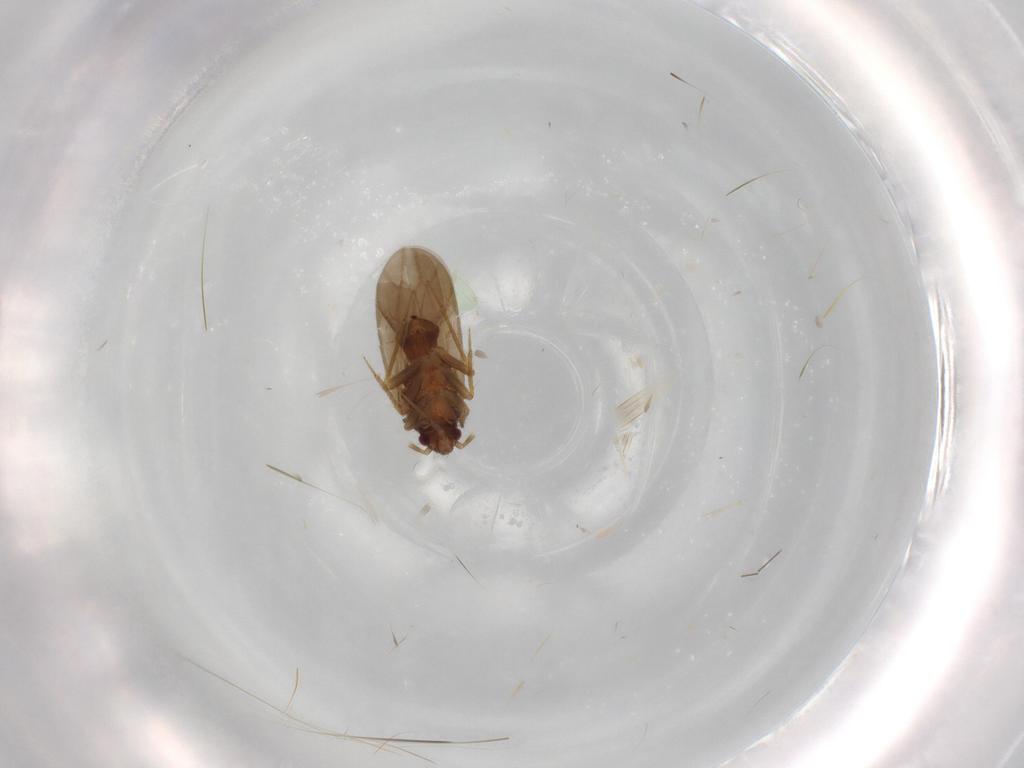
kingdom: Animalia
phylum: Arthropoda
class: Insecta
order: Hemiptera
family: Ceratocombidae
